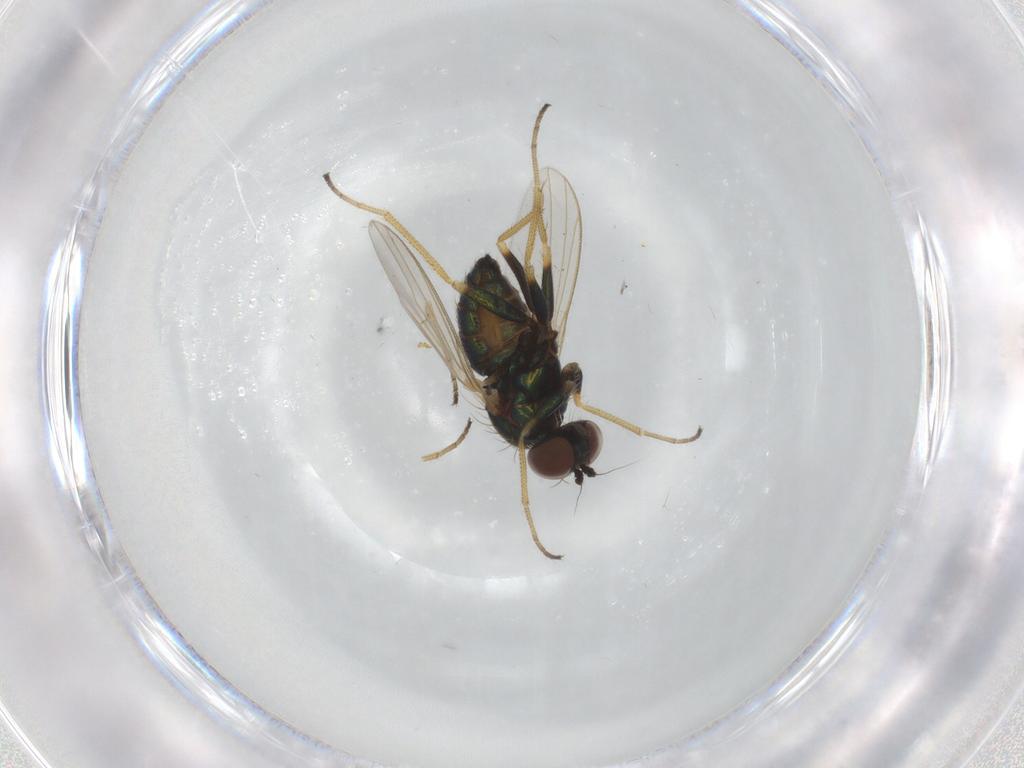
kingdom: Animalia
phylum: Arthropoda
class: Insecta
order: Diptera
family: Dolichopodidae
